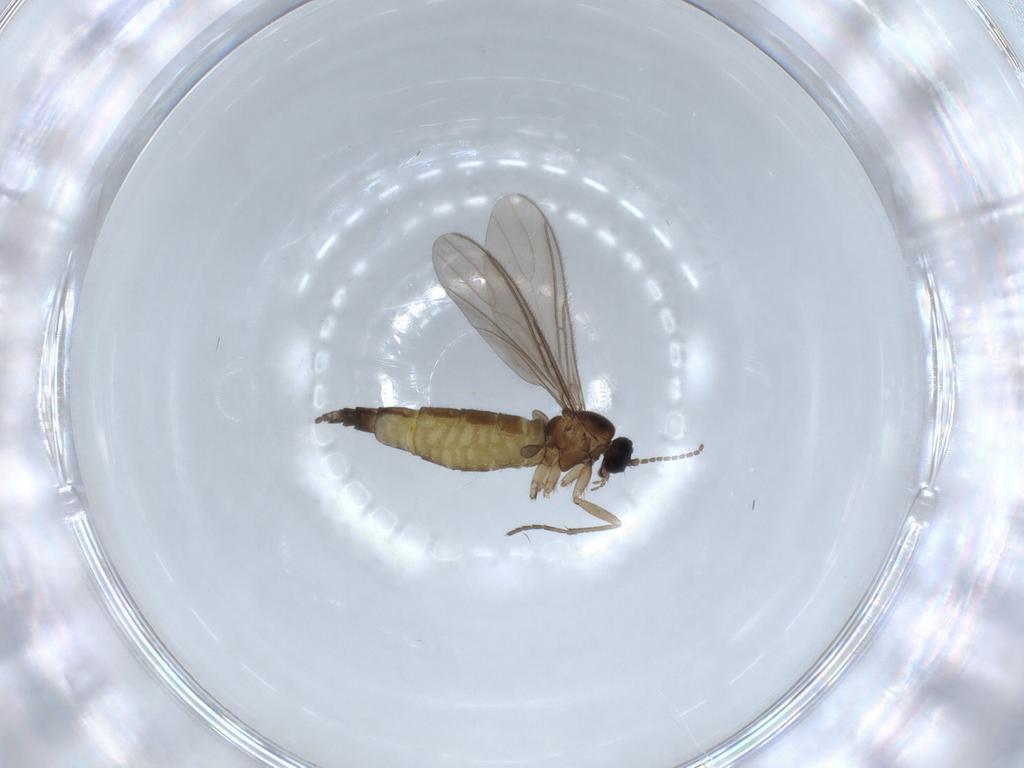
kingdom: Animalia
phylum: Arthropoda
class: Insecta
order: Diptera
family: Sciaridae
